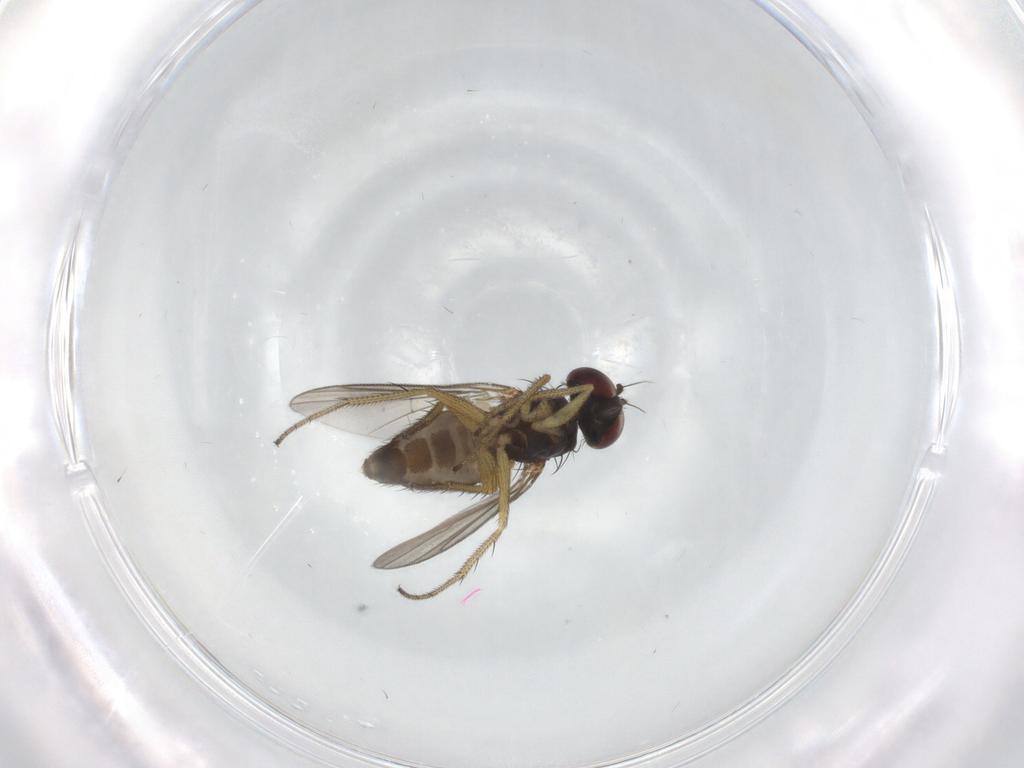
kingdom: Animalia
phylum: Arthropoda
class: Insecta
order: Diptera
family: Dolichopodidae
